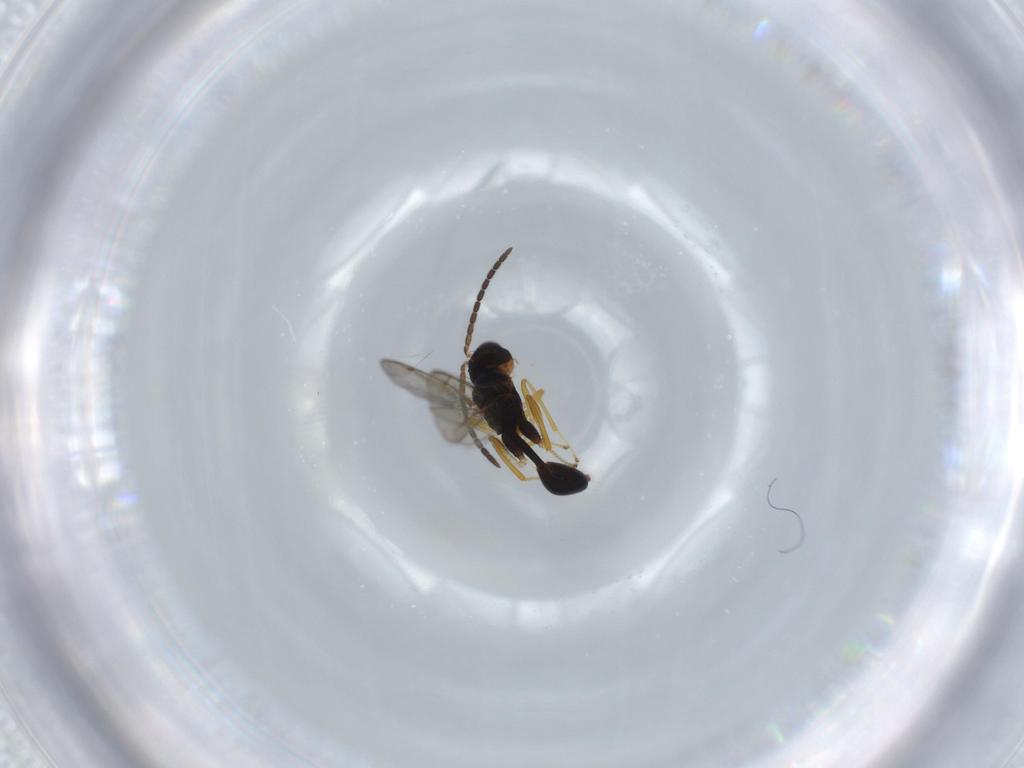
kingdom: Animalia
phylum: Arthropoda
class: Insecta
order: Hymenoptera
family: Diparidae
